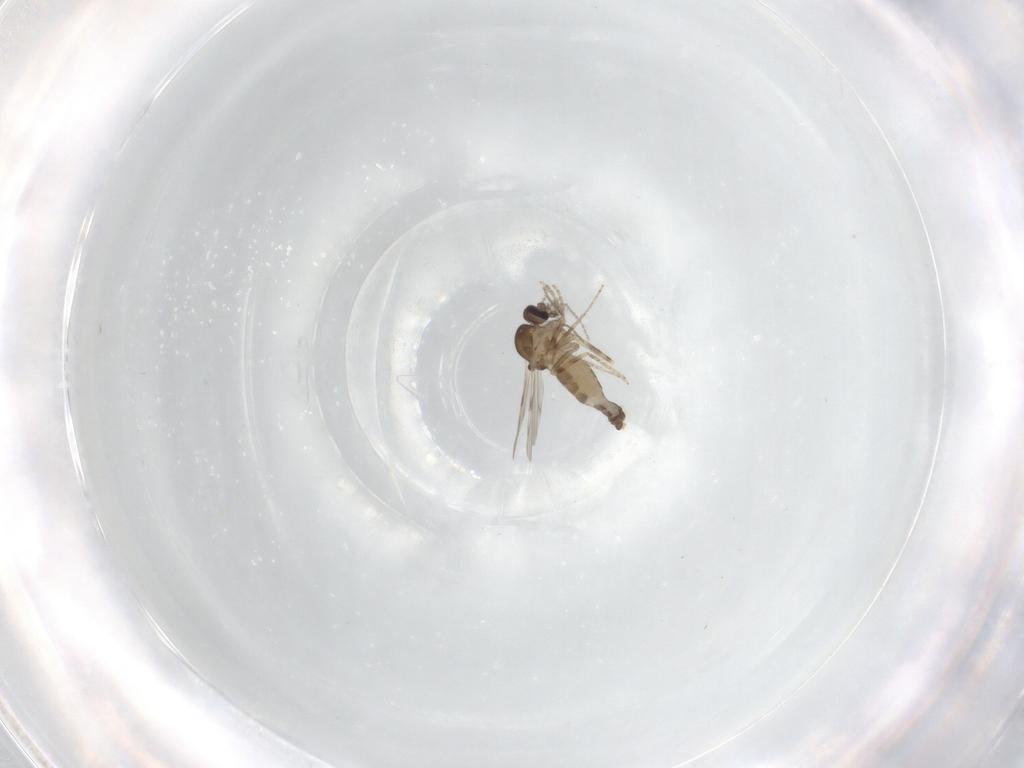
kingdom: Animalia
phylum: Arthropoda
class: Insecta
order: Diptera
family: Ceratopogonidae
